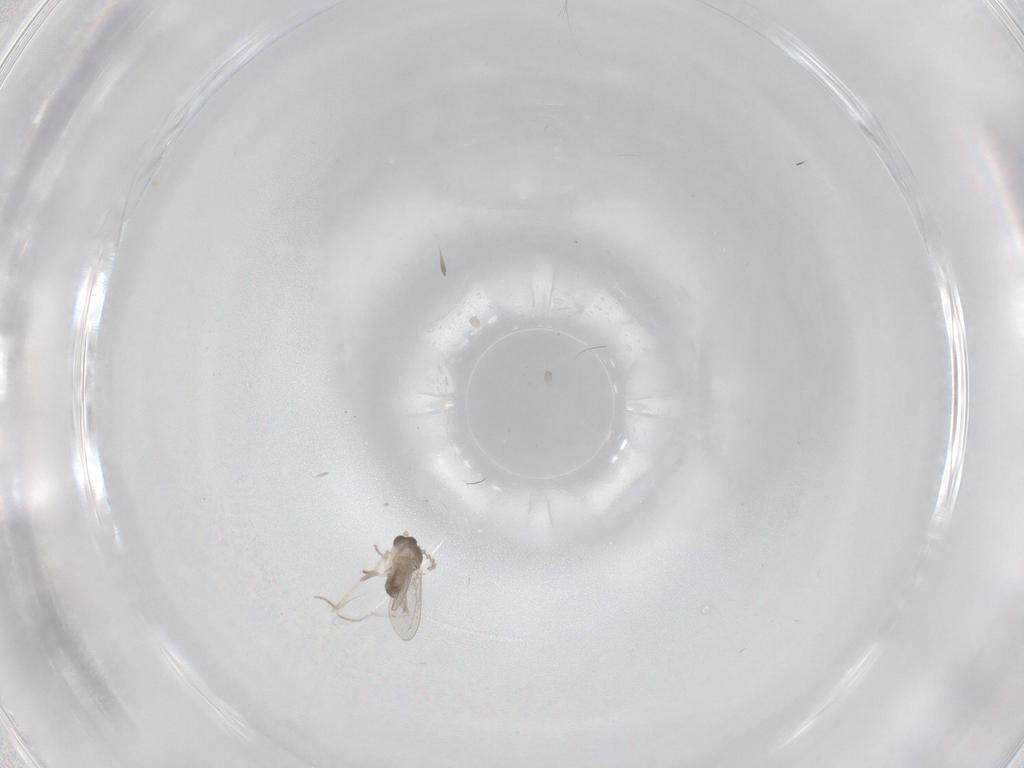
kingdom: Animalia
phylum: Arthropoda
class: Insecta
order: Diptera
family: Cecidomyiidae
